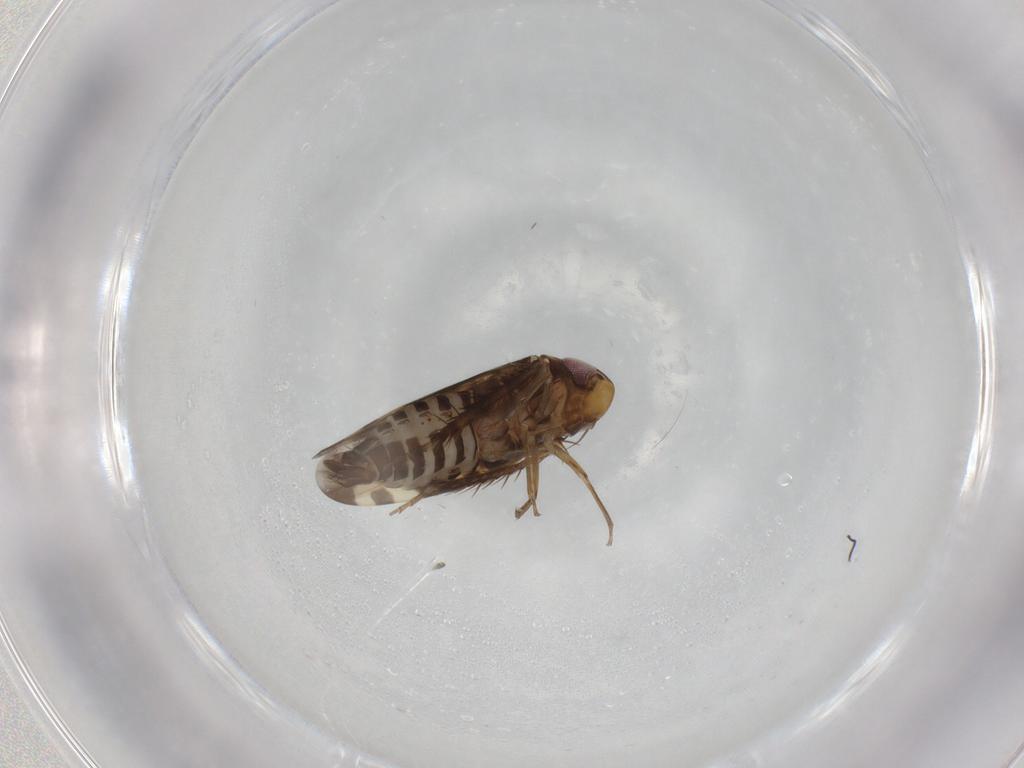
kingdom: Animalia
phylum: Arthropoda
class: Insecta
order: Hemiptera
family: Cicadellidae
